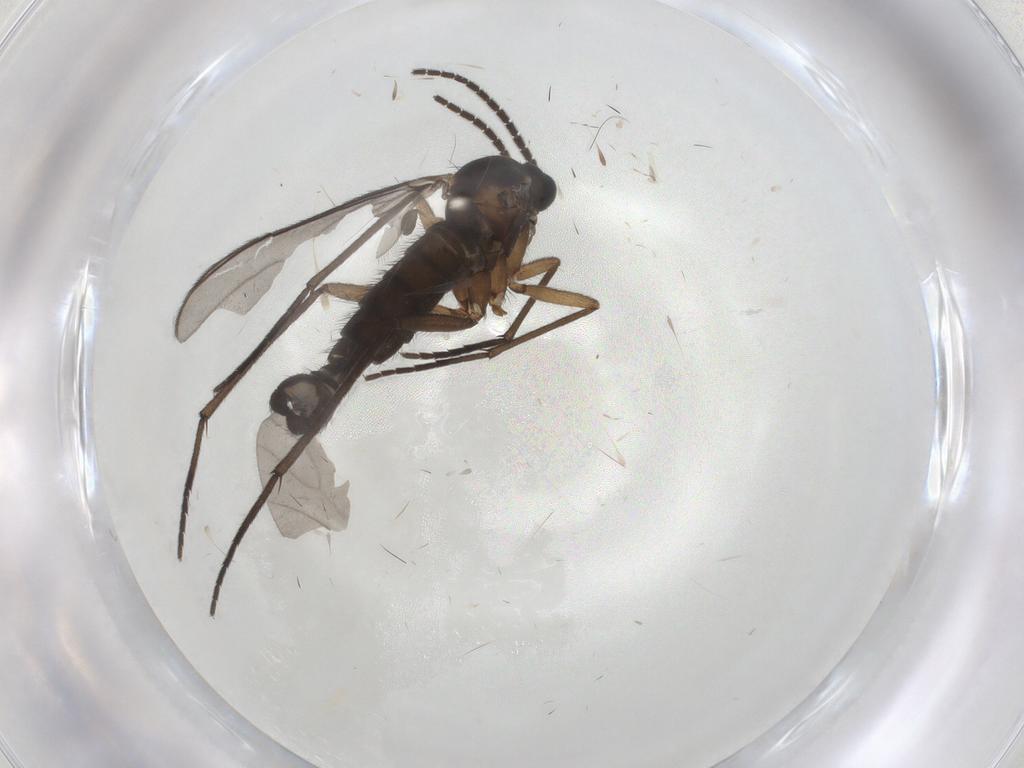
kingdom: Animalia
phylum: Arthropoda
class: Insecta
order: Diptera
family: Sciaridae
